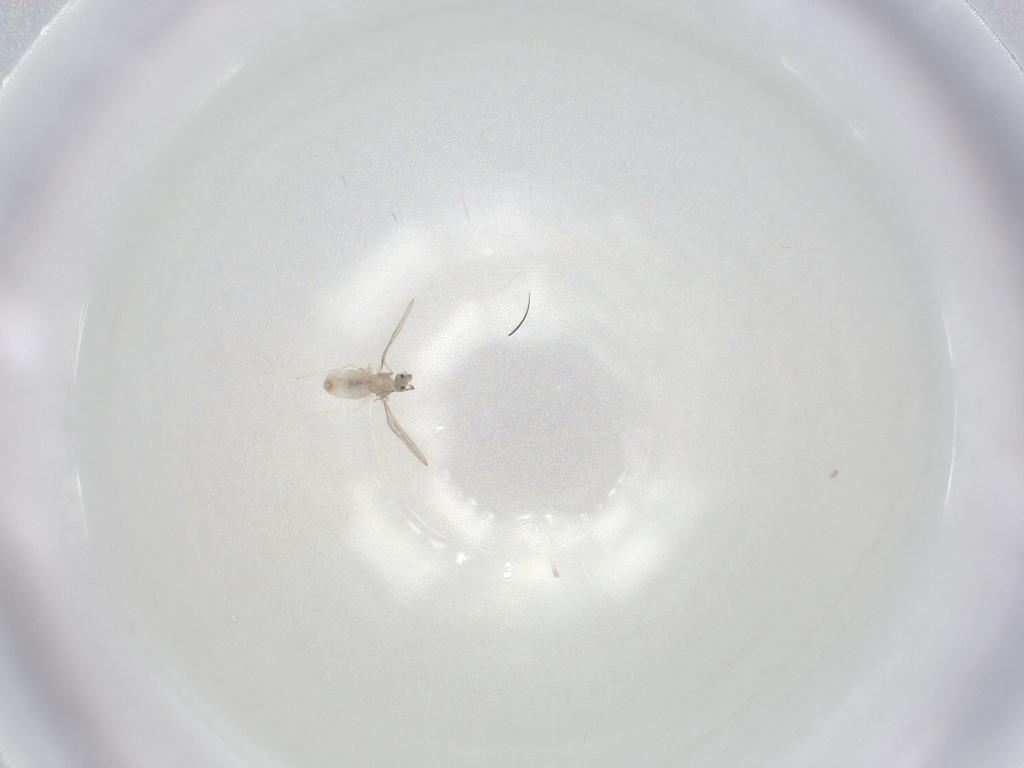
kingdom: Animalia
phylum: Arthropoda
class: Insecta
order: Diptera
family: Cecidomyiidae
